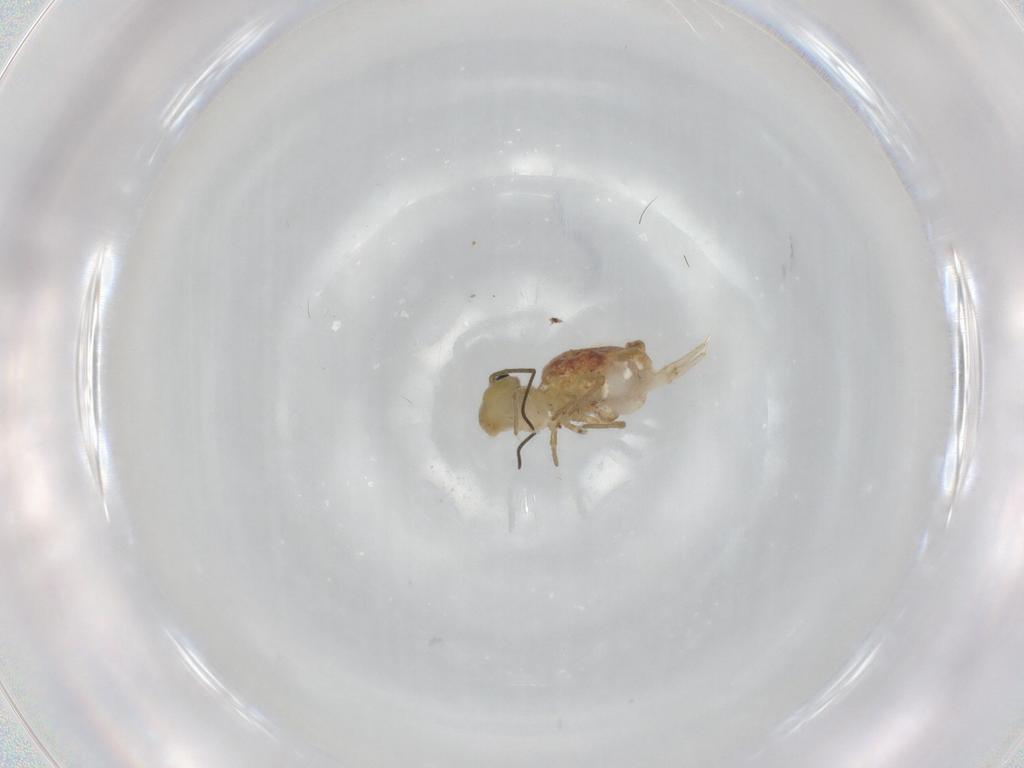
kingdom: Animalia
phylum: Arthropoda
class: Collembola
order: Symphypleona
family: Sminthuridae
